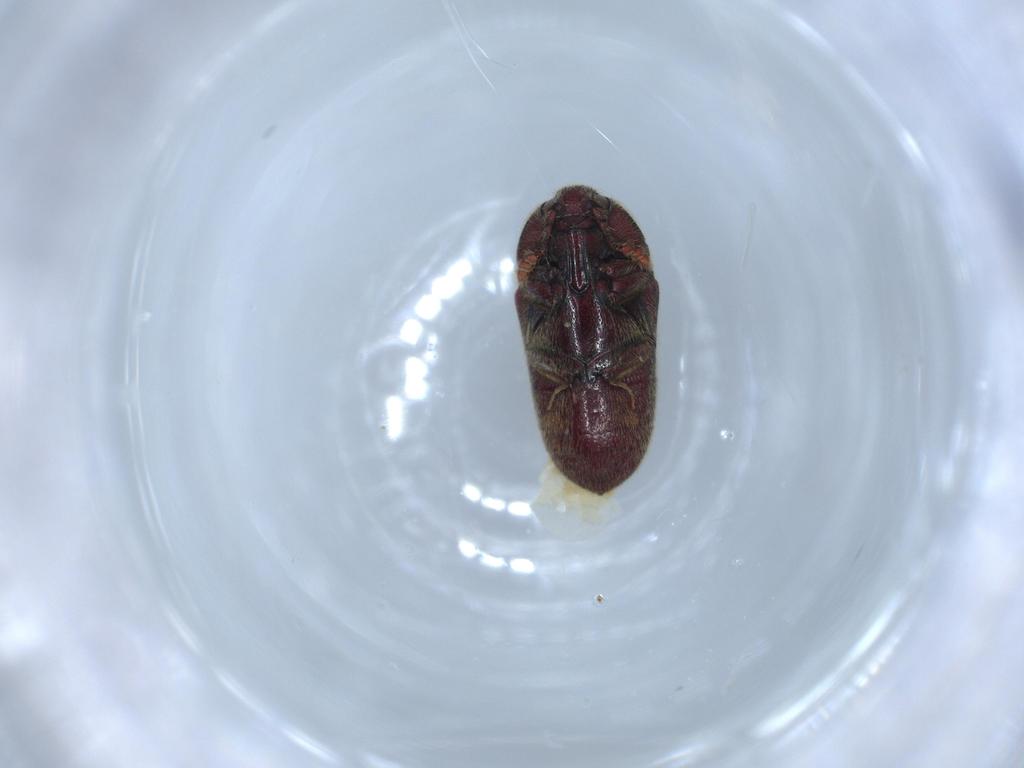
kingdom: Animalia
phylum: Arthropoda
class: Insecta
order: Coleoptera
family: Throscidae
